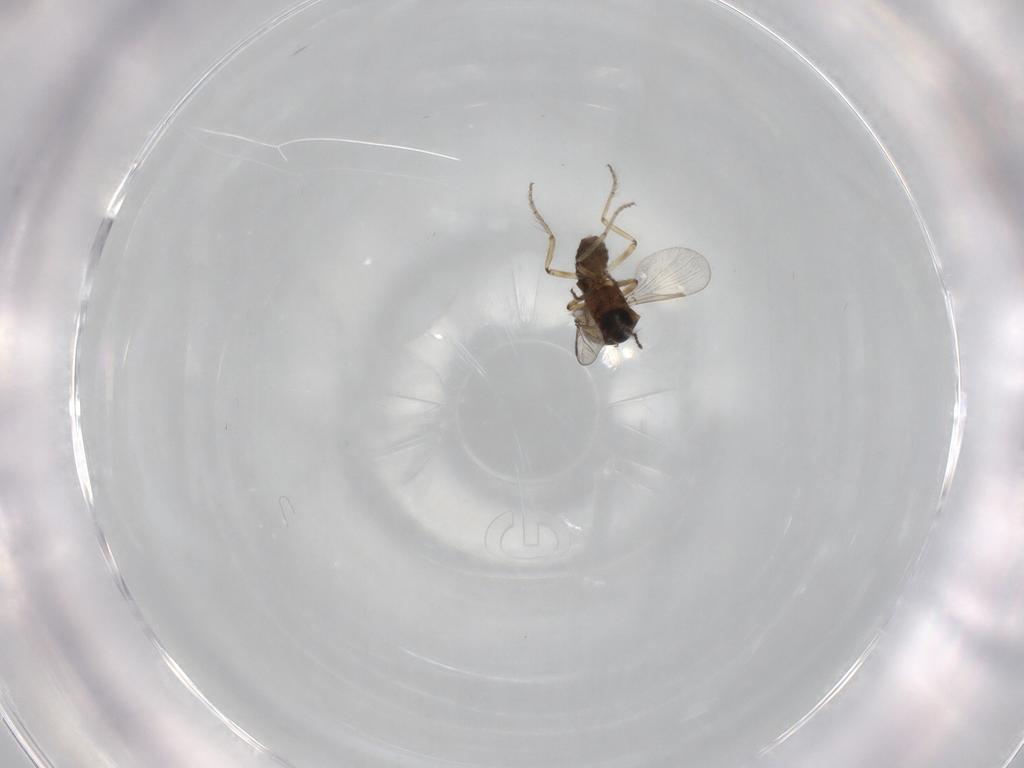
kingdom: Animalia
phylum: Arthropoda
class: Insecta
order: Diptera
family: Ceratopogonidae
